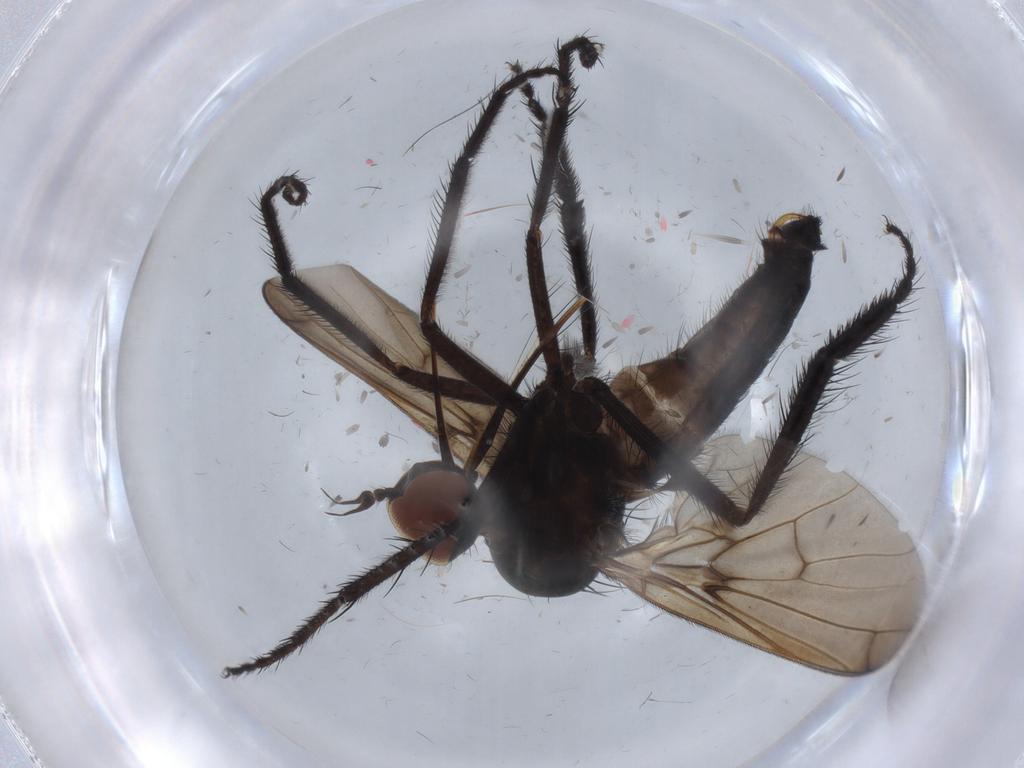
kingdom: Animalia
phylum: Arthropoda
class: Insecta
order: Diptera
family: Empididae
